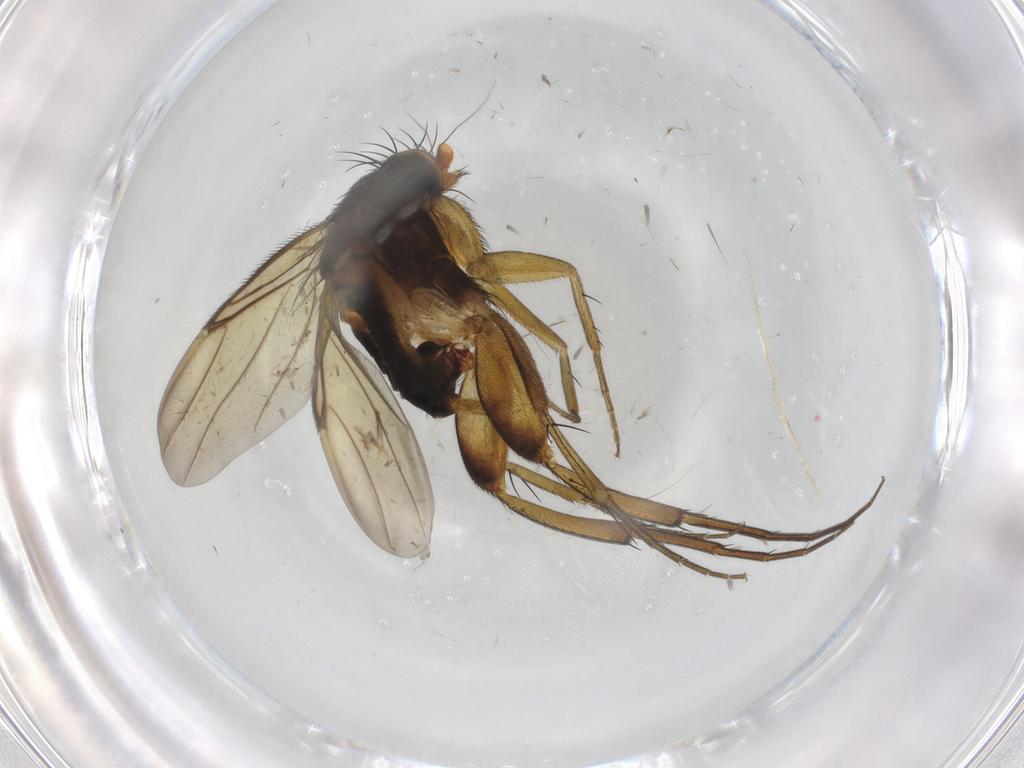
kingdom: Animalia
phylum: Arthropoda
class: Insecta
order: Diptera
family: Phoridae
